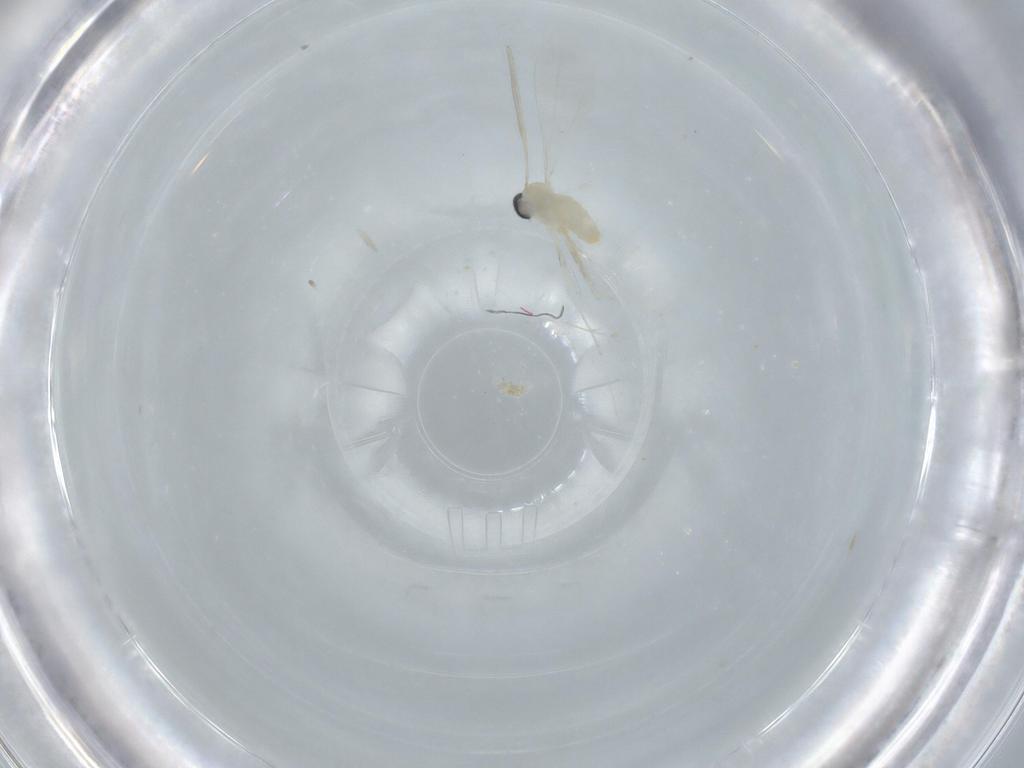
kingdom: Animalia
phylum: Arthropoda
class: Insecta
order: Diptera
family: Cecidomyiidae
